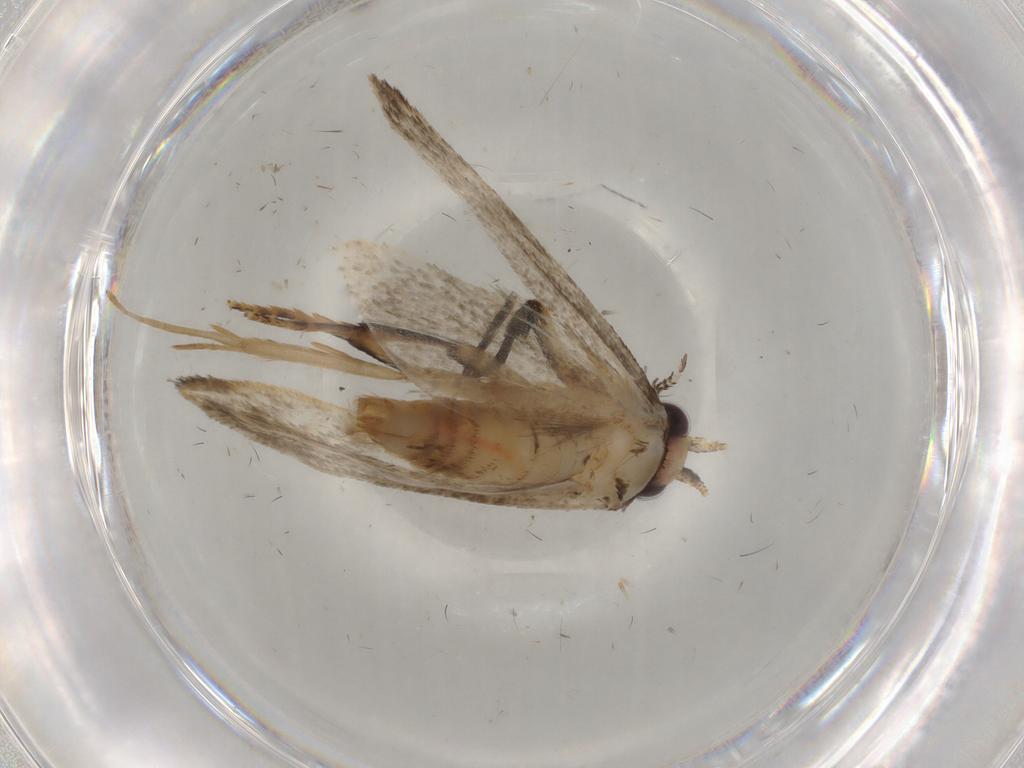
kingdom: Animalia
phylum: Arthropoda
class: Insecta
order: Lepidoptera
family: Tineidae
